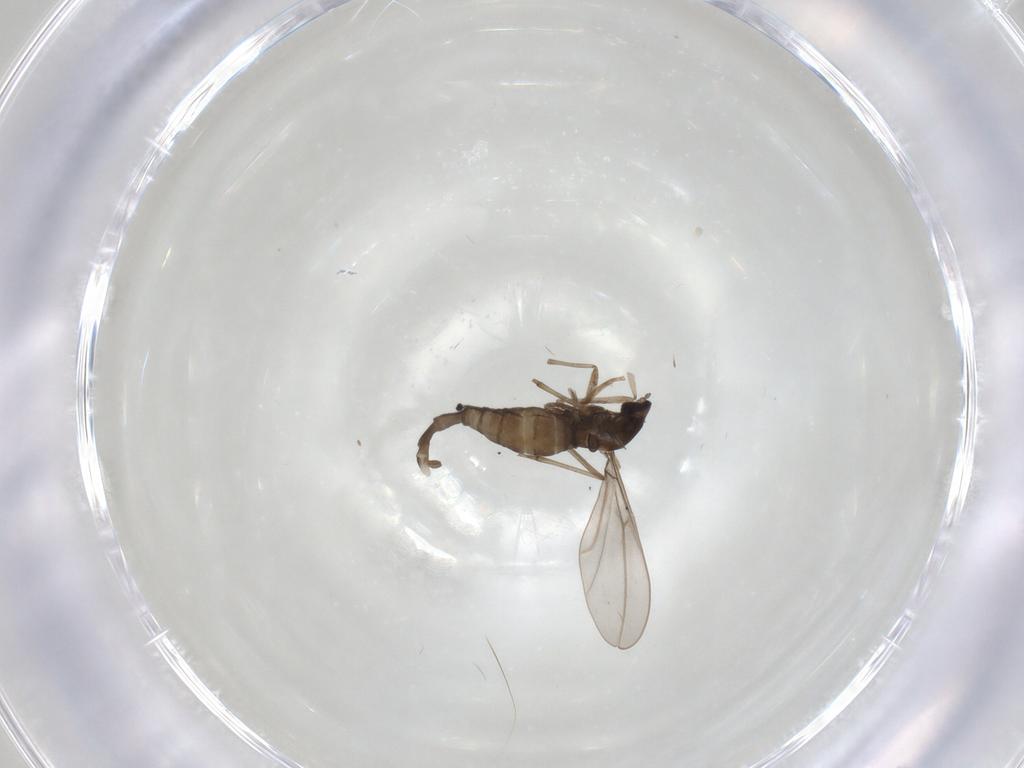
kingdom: Animalia
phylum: Arthropoda
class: Insecta
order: Diptera
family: Cecidomyiidae
